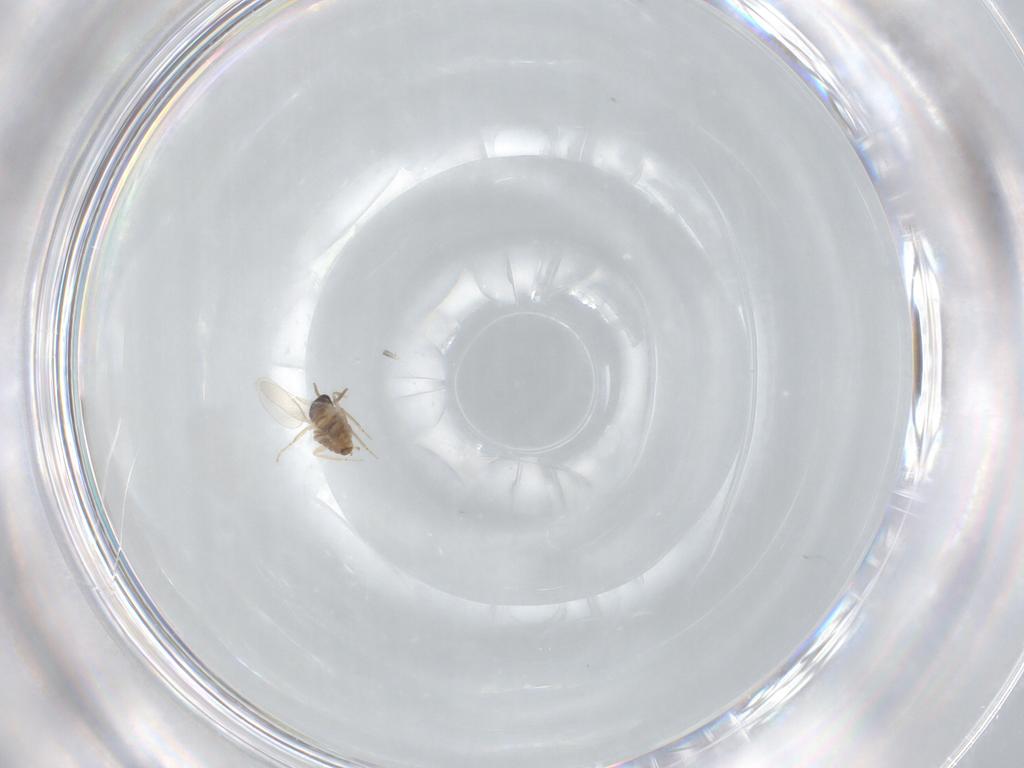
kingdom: Animalia
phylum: Arthropoda
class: Insecta
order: Diptera
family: Cecidomyiidae
